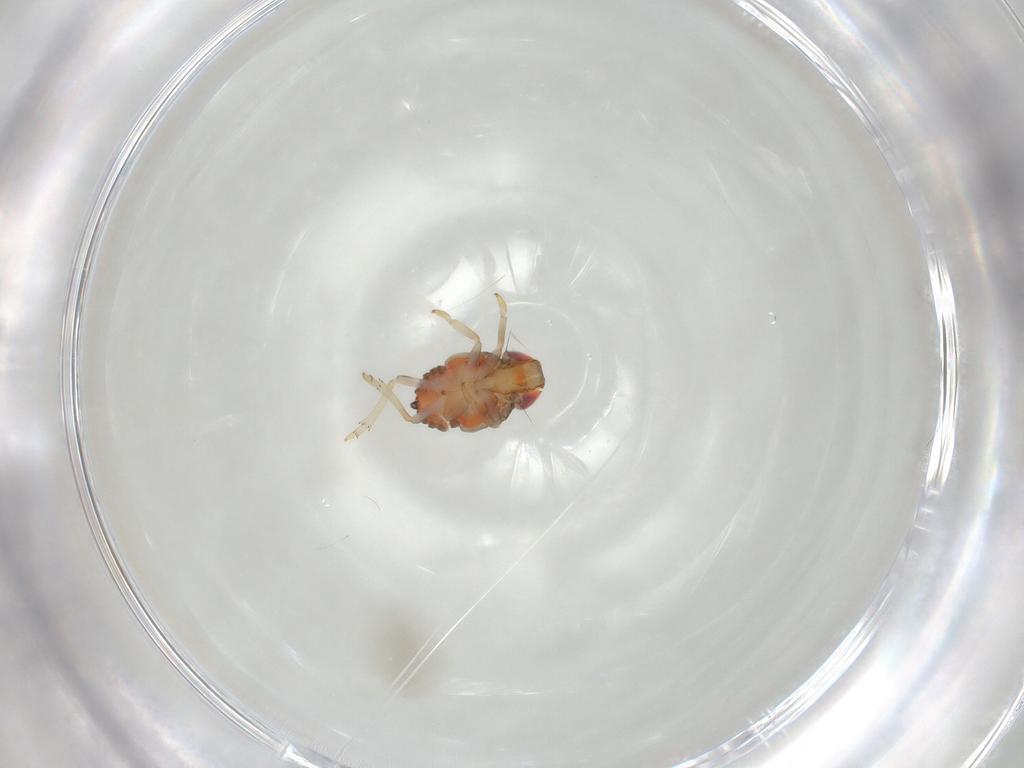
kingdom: Animalia
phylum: Arthropoda
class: Insecta
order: Hemiptera
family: Issidae
